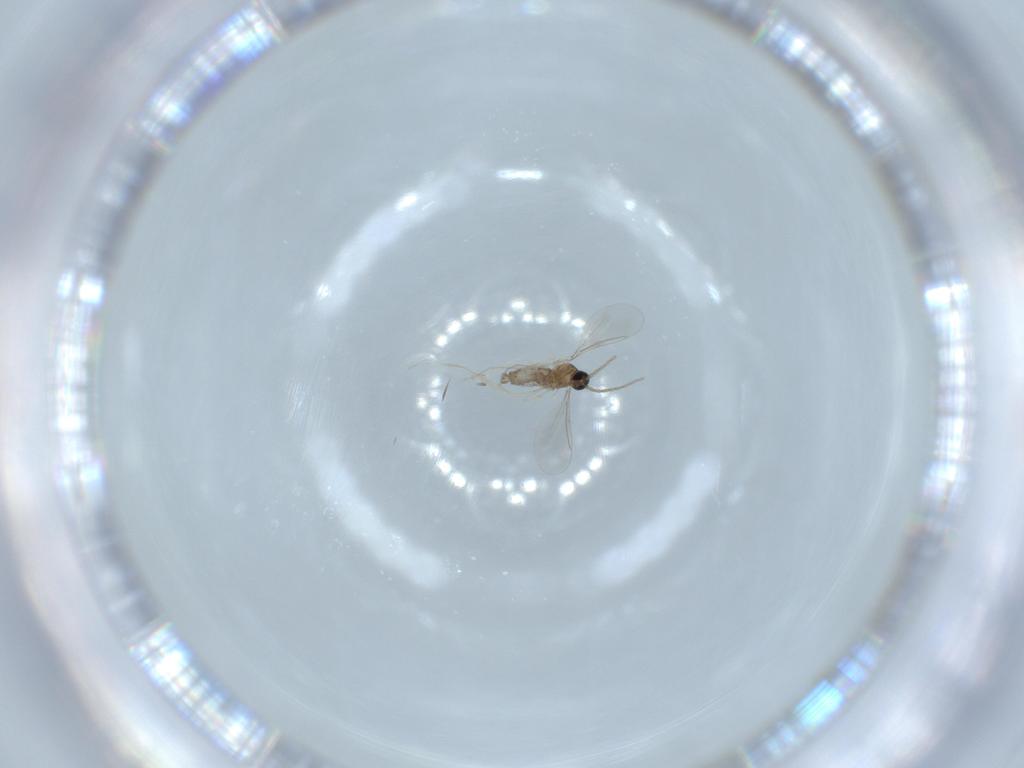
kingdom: Animalia
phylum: Arthropoda
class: Insecta
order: Diptera
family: Cecidomyiidae
